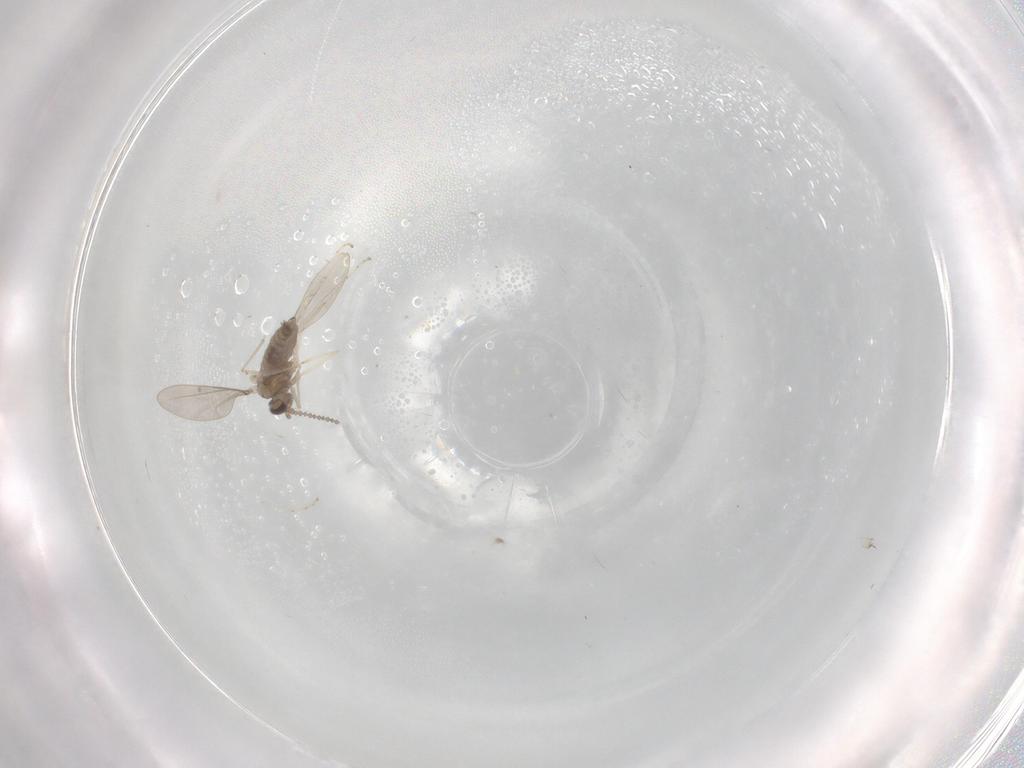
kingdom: Animalia
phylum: Arthropoda
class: Insecta
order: Diptera
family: Cecidomyiidae
